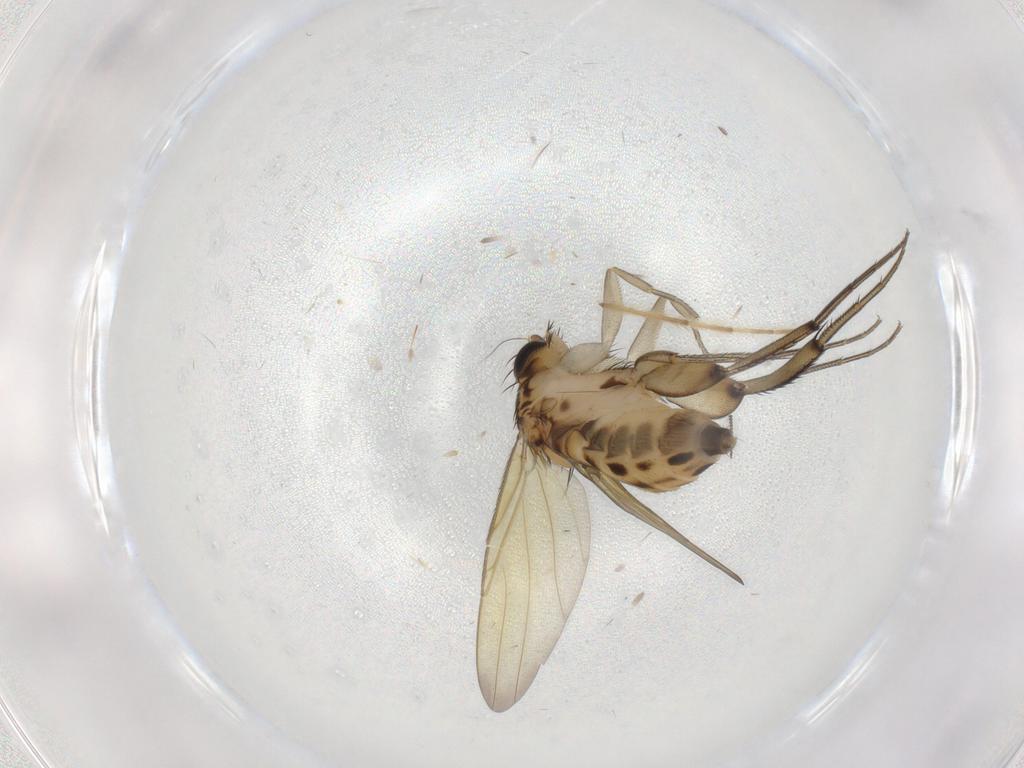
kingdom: Animalia
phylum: Arthropoda
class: Insecta
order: Diptera
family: Phoridae
